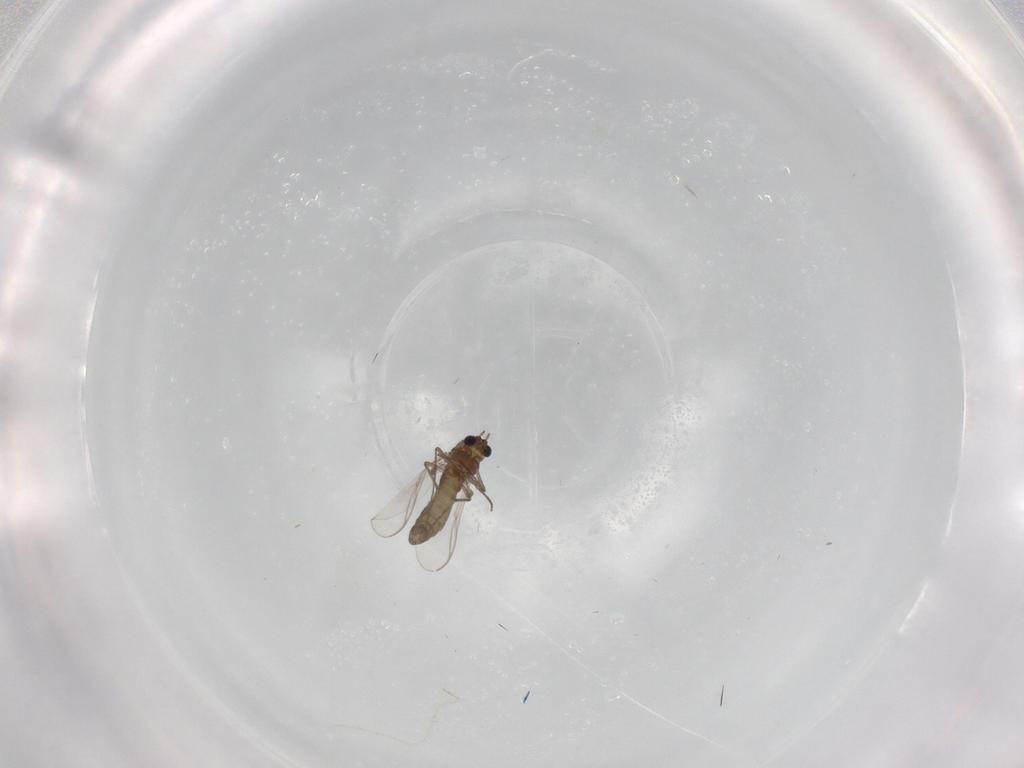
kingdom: Animalia
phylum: Arthropoda
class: Insecta
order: Diptera
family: Chironomidae
